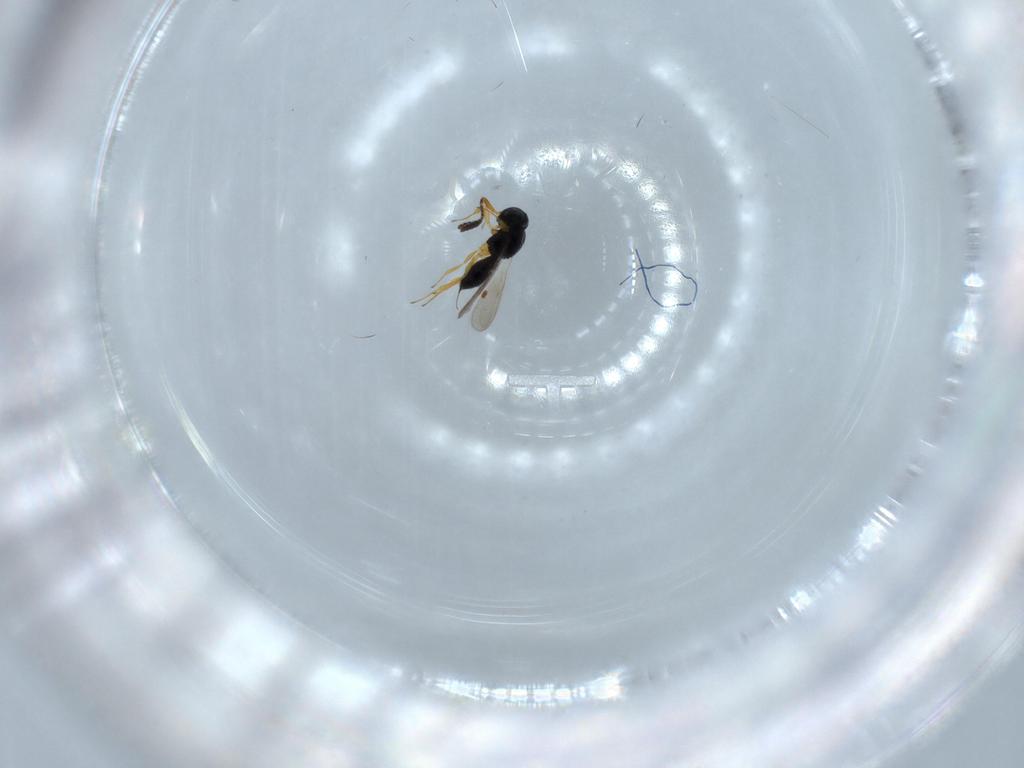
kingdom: Animalia
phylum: Arthropoda
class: Insecta
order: Hymenoptera
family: Scelionidae
